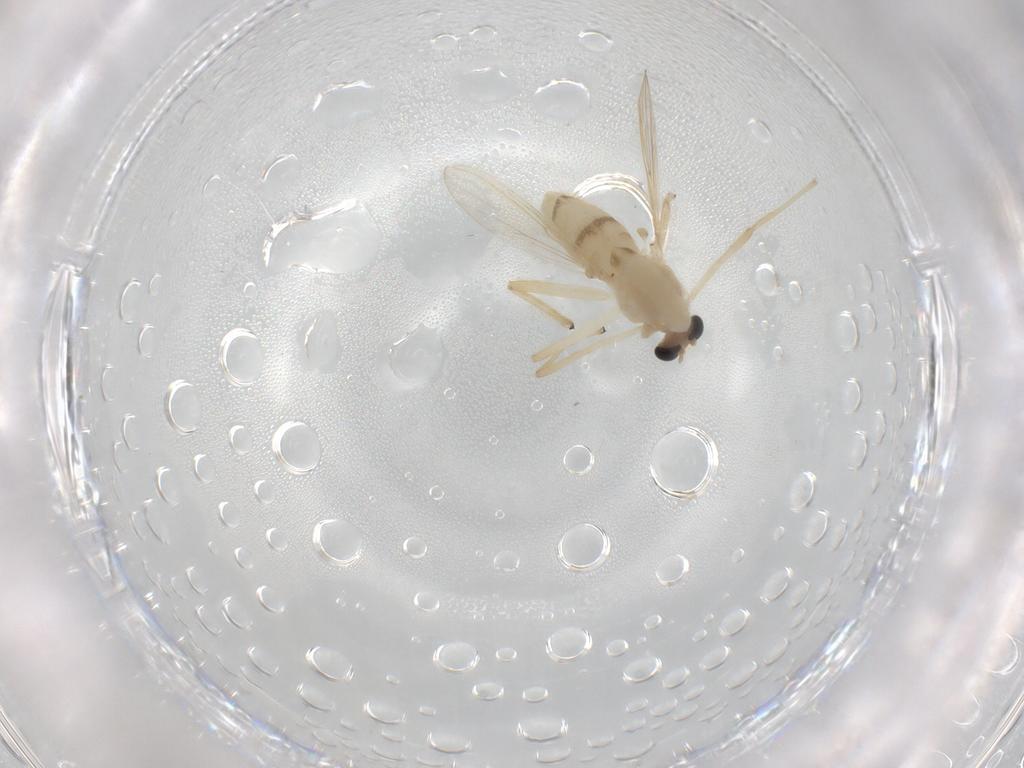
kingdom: Animalia
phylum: Arthropoda
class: Insecta
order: Diptera
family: Chironomidae
